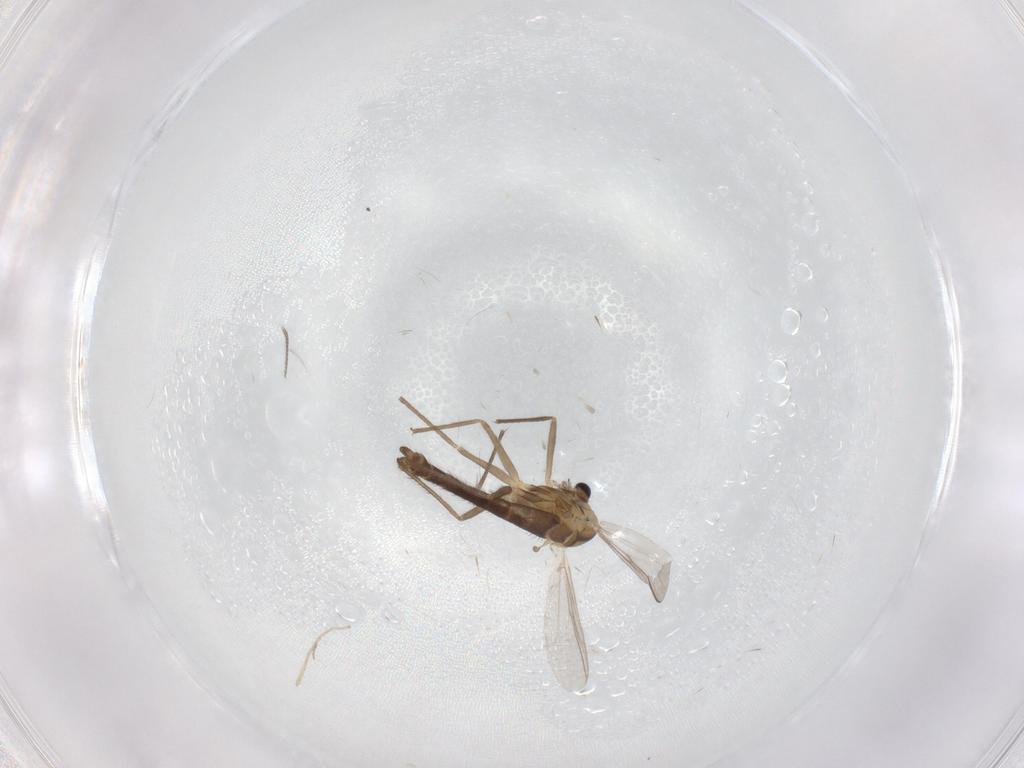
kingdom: Animalia
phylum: Arthropoda
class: Insecta
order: Diptera
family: Chironomidae
